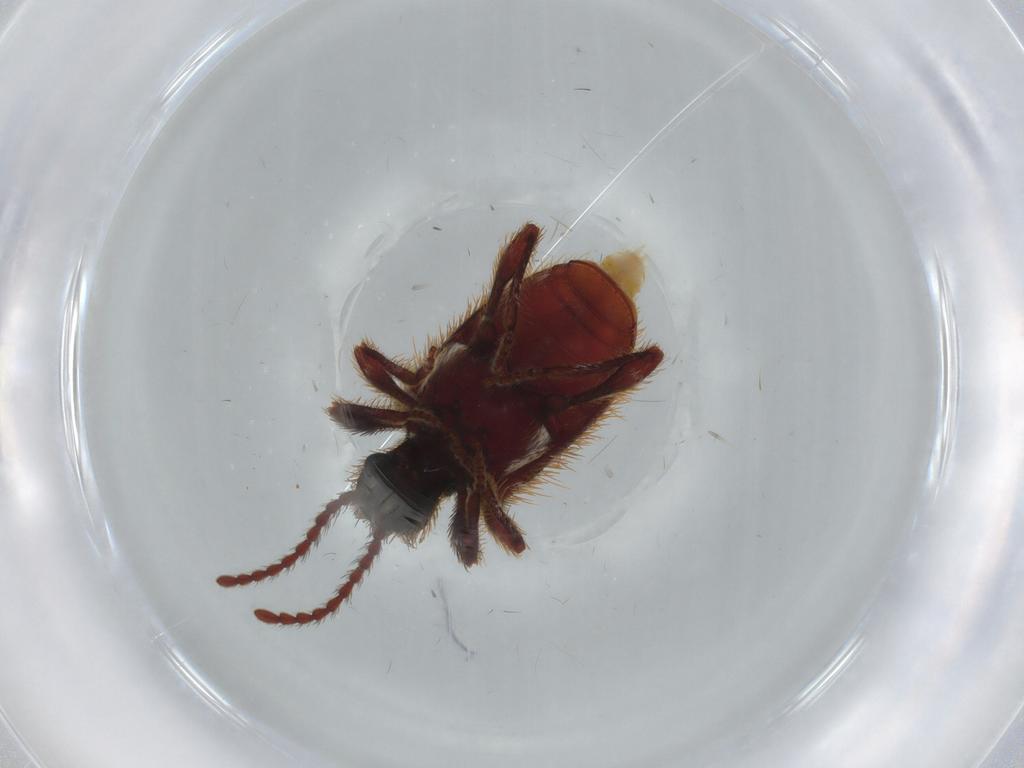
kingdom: Animalia
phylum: Arthropoda
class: Insecta
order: Coleoptera
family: Ptinidae
